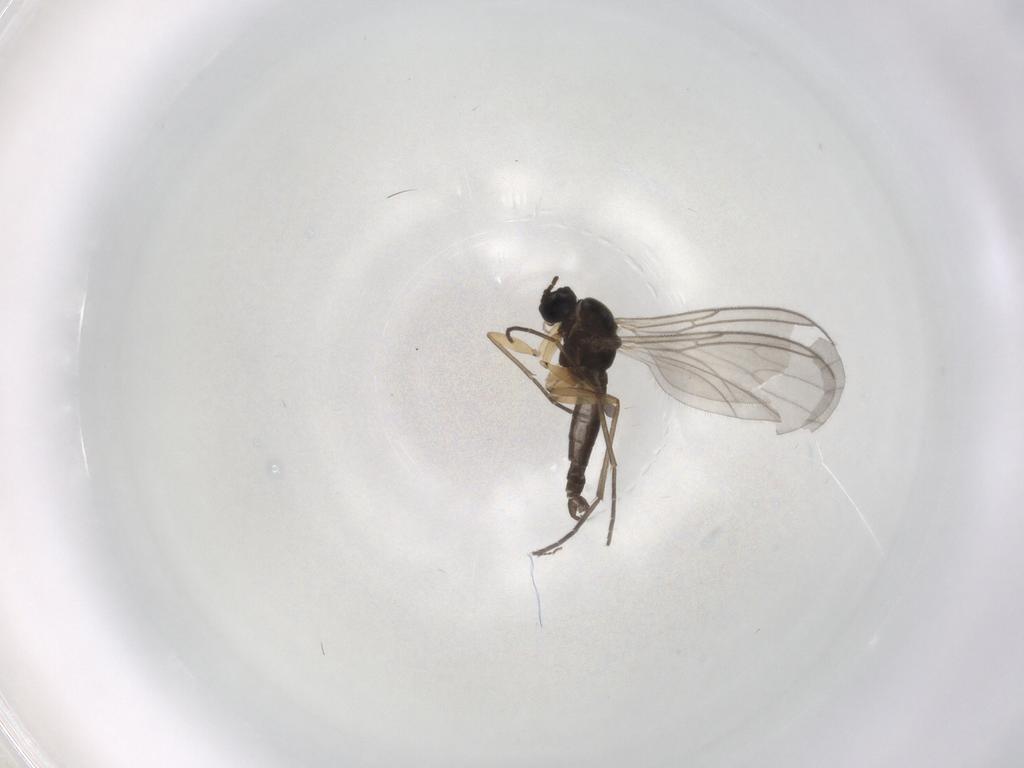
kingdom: Animalia
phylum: Arthropoda
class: Insecta
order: Diptera
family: Sciaridae
